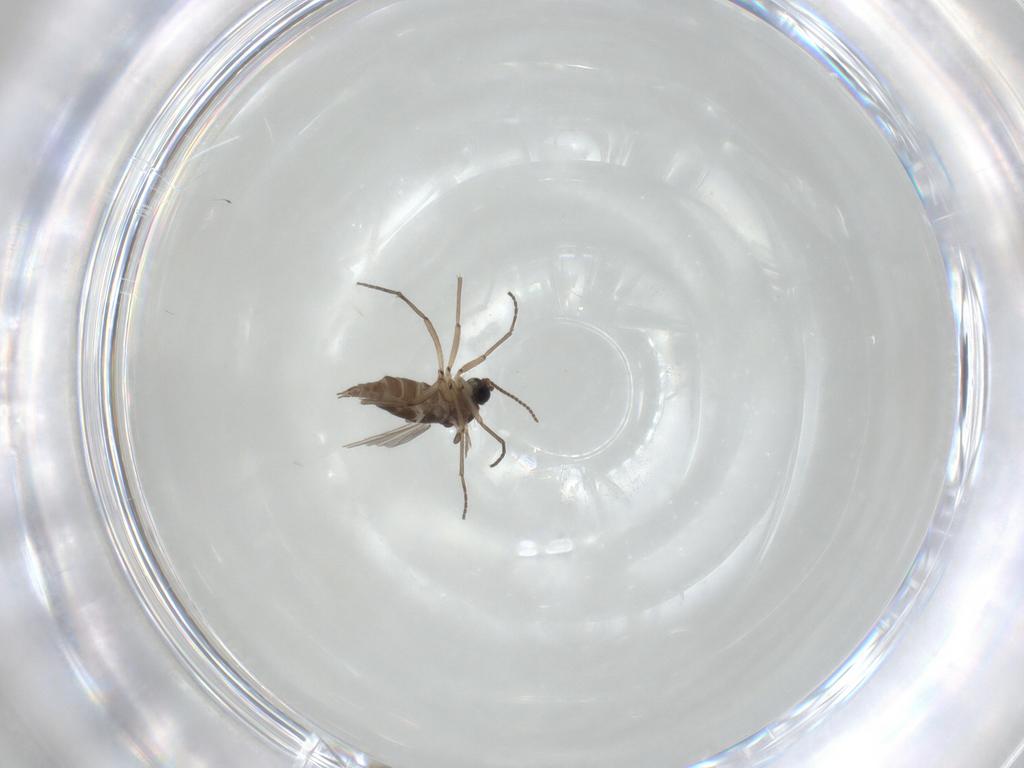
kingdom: Animalia
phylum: Arthropoda
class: Insecta
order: Diptera
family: Sciaridae
